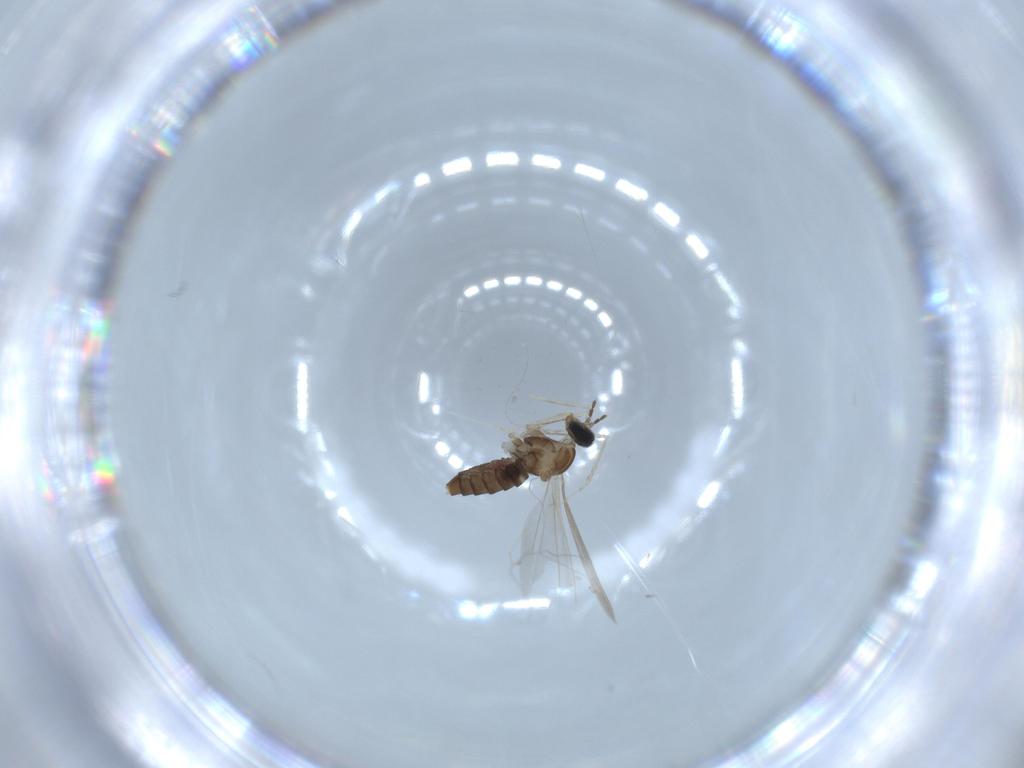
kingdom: Animalia
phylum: Arthropoda
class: Insecta
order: Diptera
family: Cecidomyiidae
